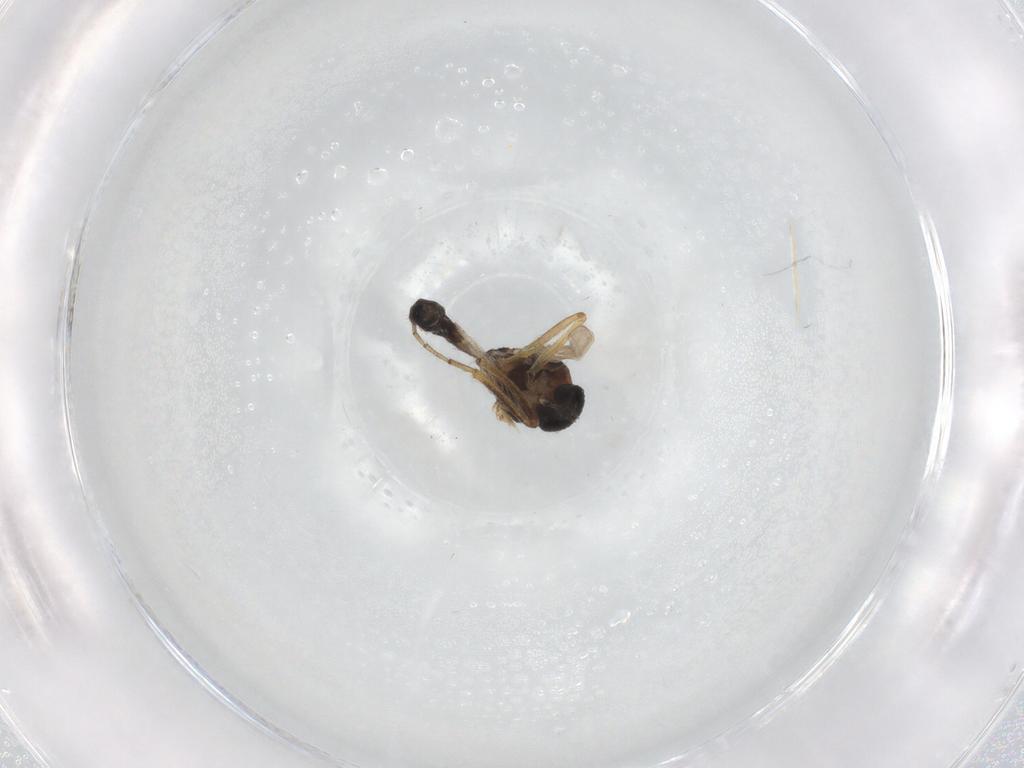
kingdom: Animalia
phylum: Arthropoda
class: Insecta
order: Diptera
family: Ceratopogonidae
